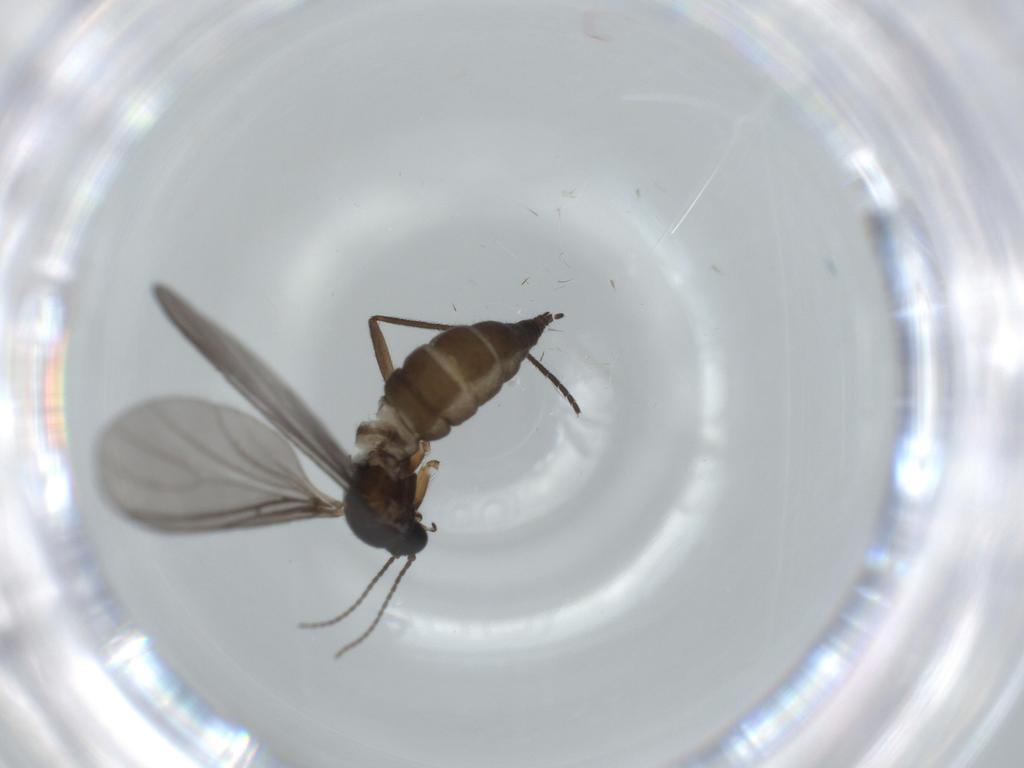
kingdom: Animalia
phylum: Arthropoda
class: Insecta
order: Diptera
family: Sciaridae
